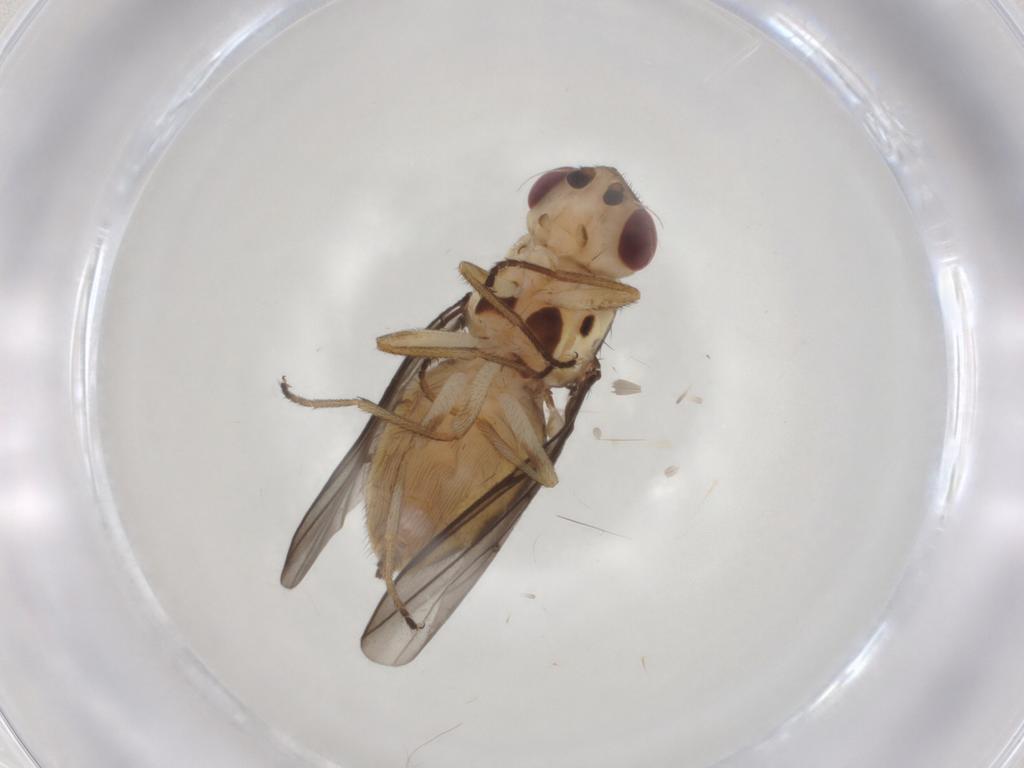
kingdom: Animalia
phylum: Arthropoda
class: Insecta
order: Diptera
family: Chloropidae
